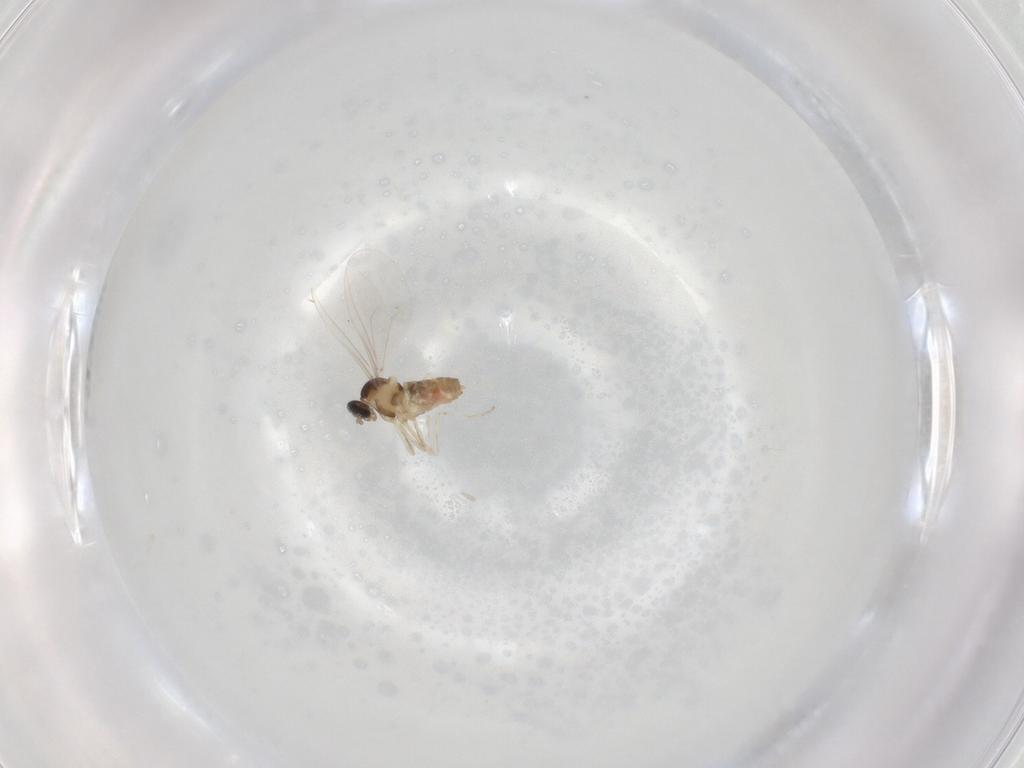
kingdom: Animalia
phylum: Arthropoda
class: Insecta
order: Diptera
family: Cecidomyiidae
